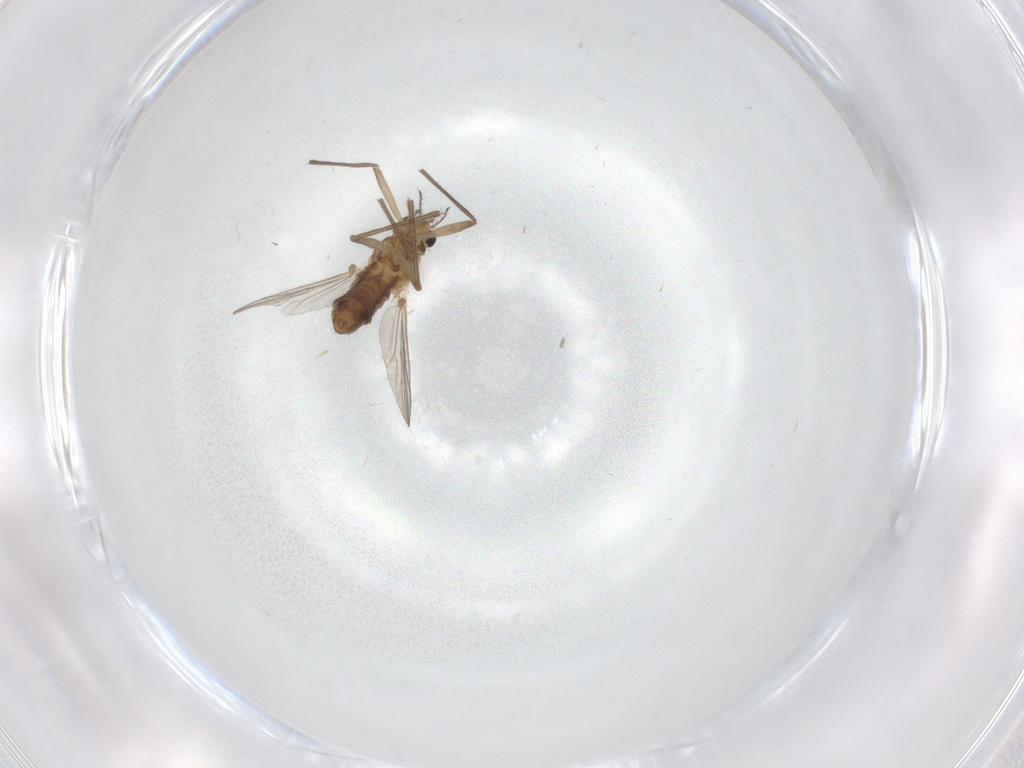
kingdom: Animalia
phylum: Arthropoda
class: Insecta
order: Diptera
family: Chironomidae
